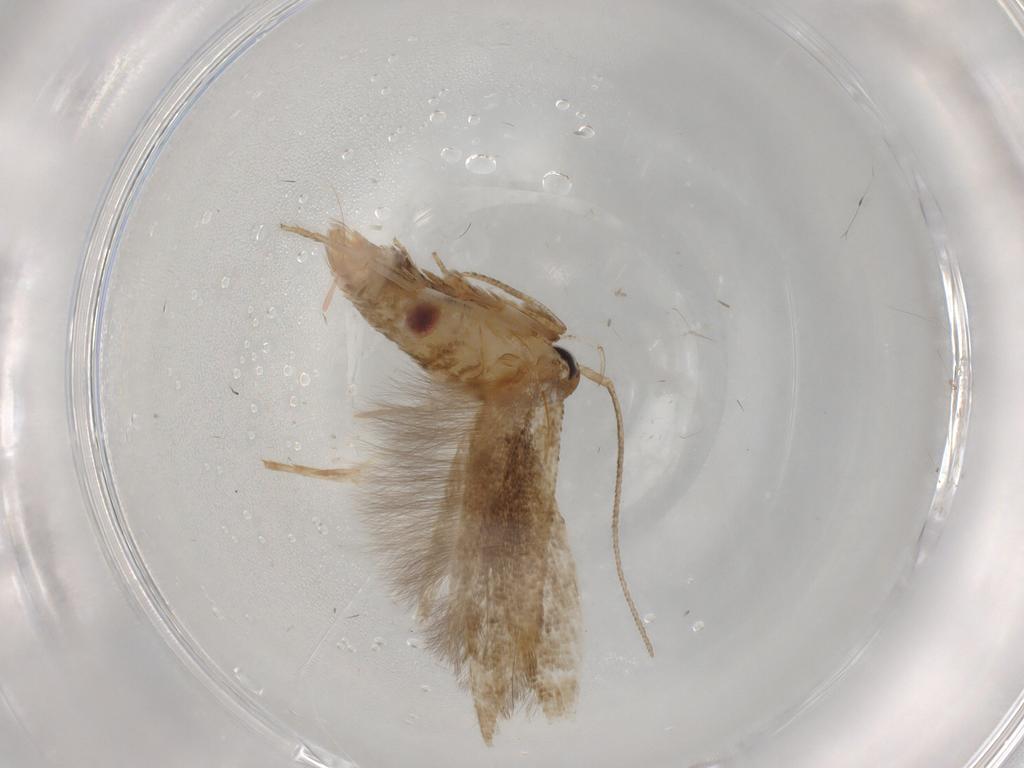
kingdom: Animalia
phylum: Arthropoda
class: Insecta
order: Lepidoptera
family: Cosmopterigidae
